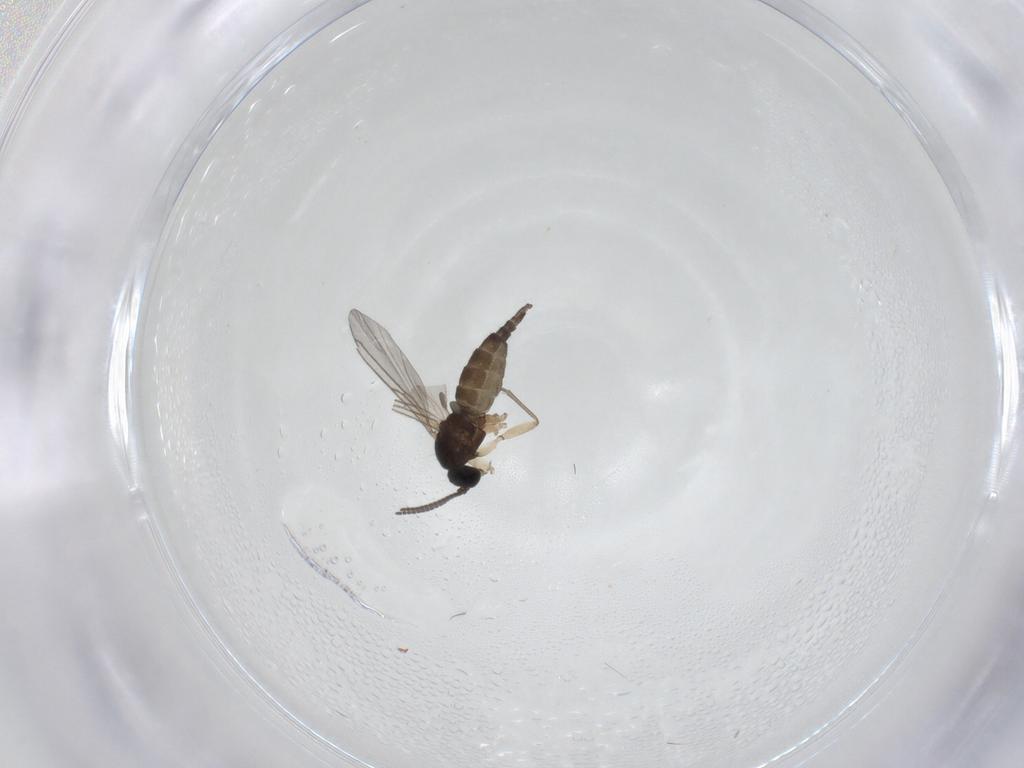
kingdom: Animalia
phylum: Arthropoda
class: Insecta
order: Diptera
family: Sciaridae
